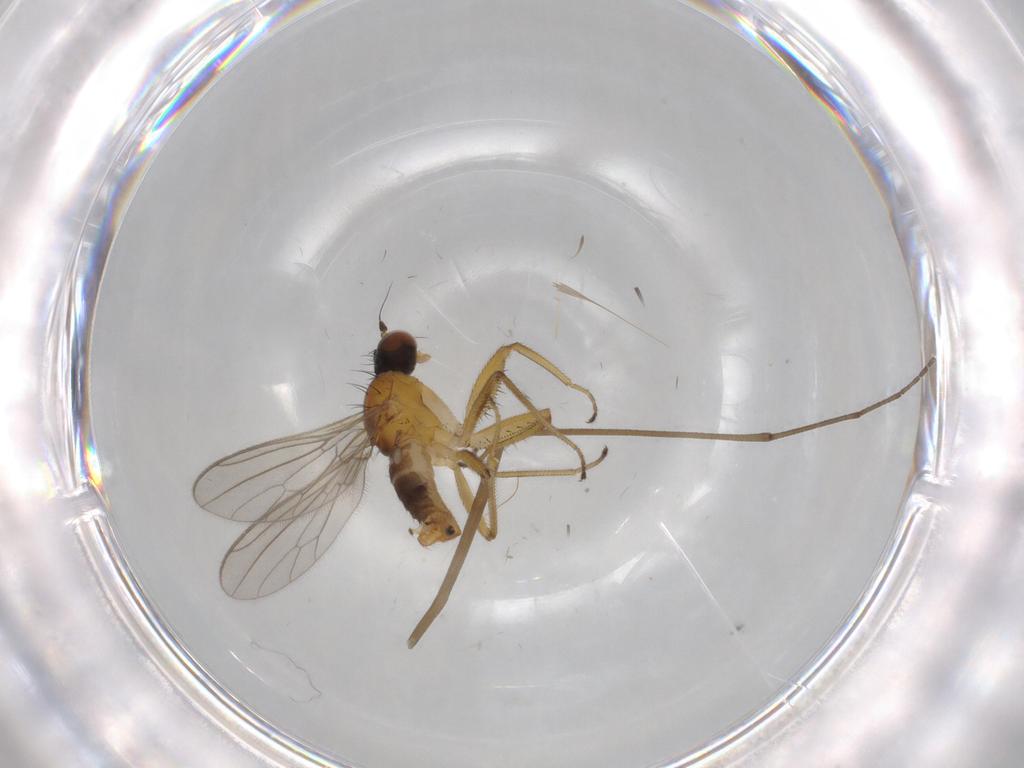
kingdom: Animalia
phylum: Arthropoda
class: Insecta
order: Diptera
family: Empididae
